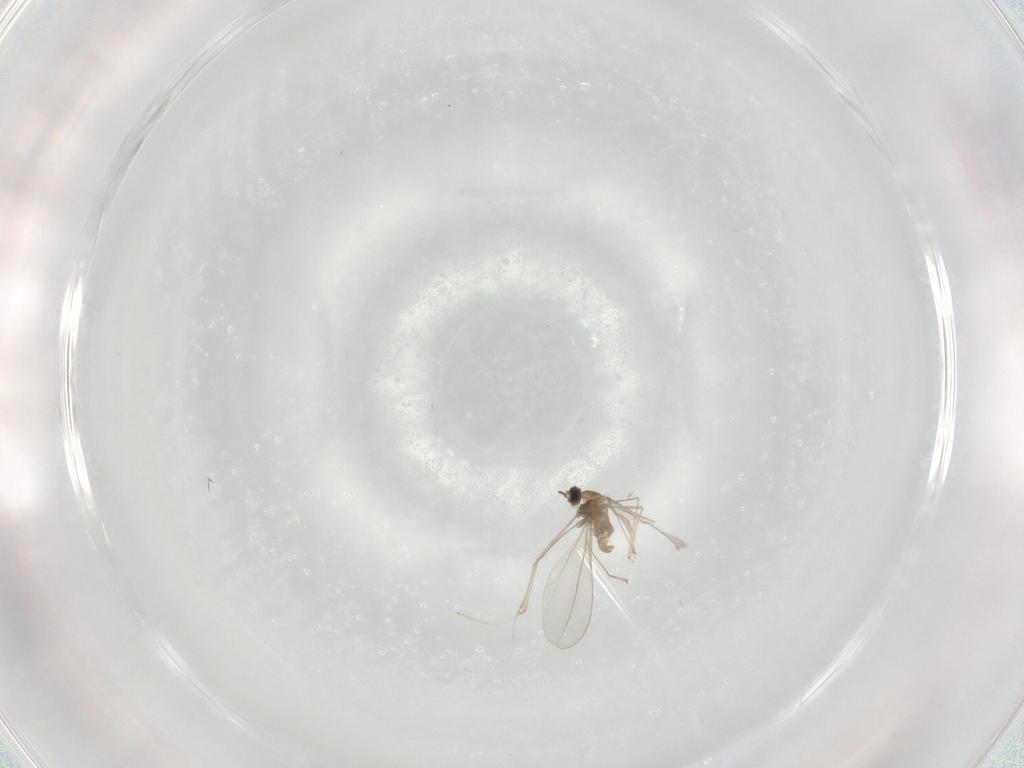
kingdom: Animalia
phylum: Arthropoda
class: Insecta
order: Diptera
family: Cecidomyiidae
